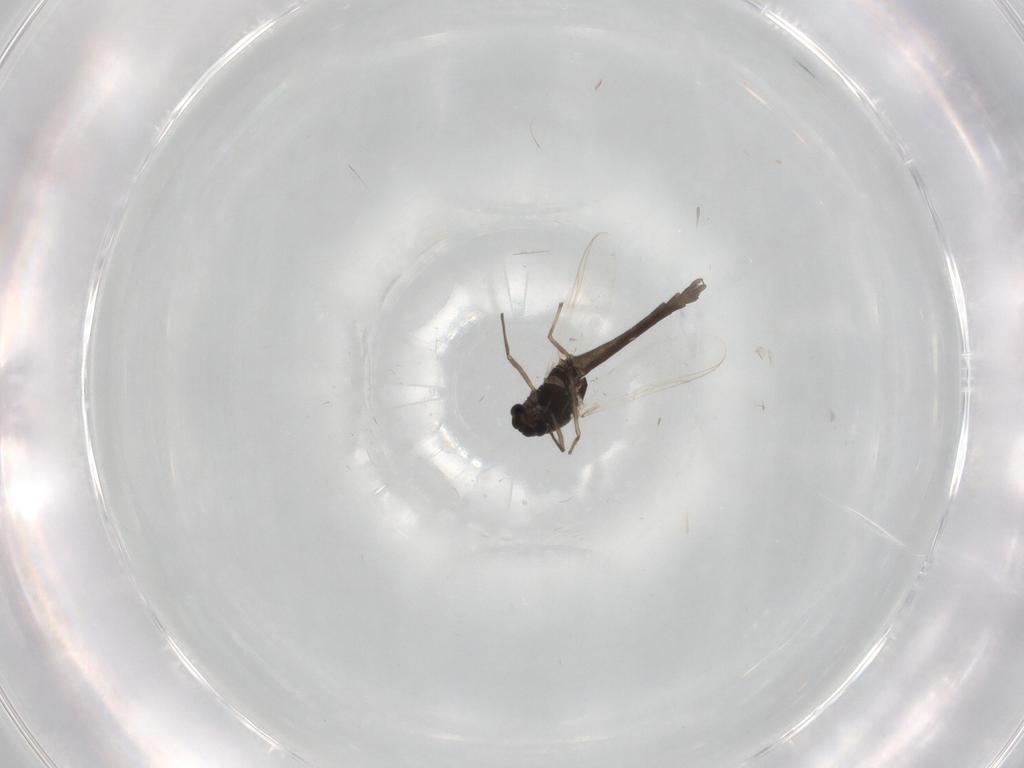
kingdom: Animalia
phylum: Arthropoda
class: Insecta
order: Diptera
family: Chironomidae
